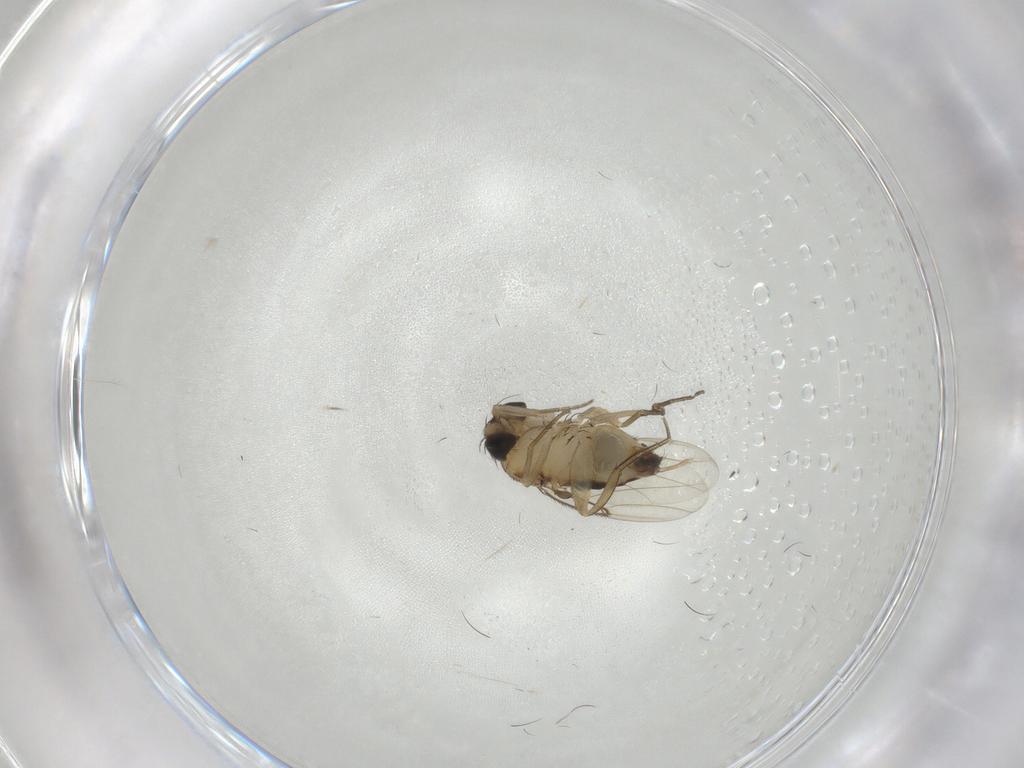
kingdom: Animalia
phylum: Arthropoda
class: Insecta
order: Diptera
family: Phoridae
